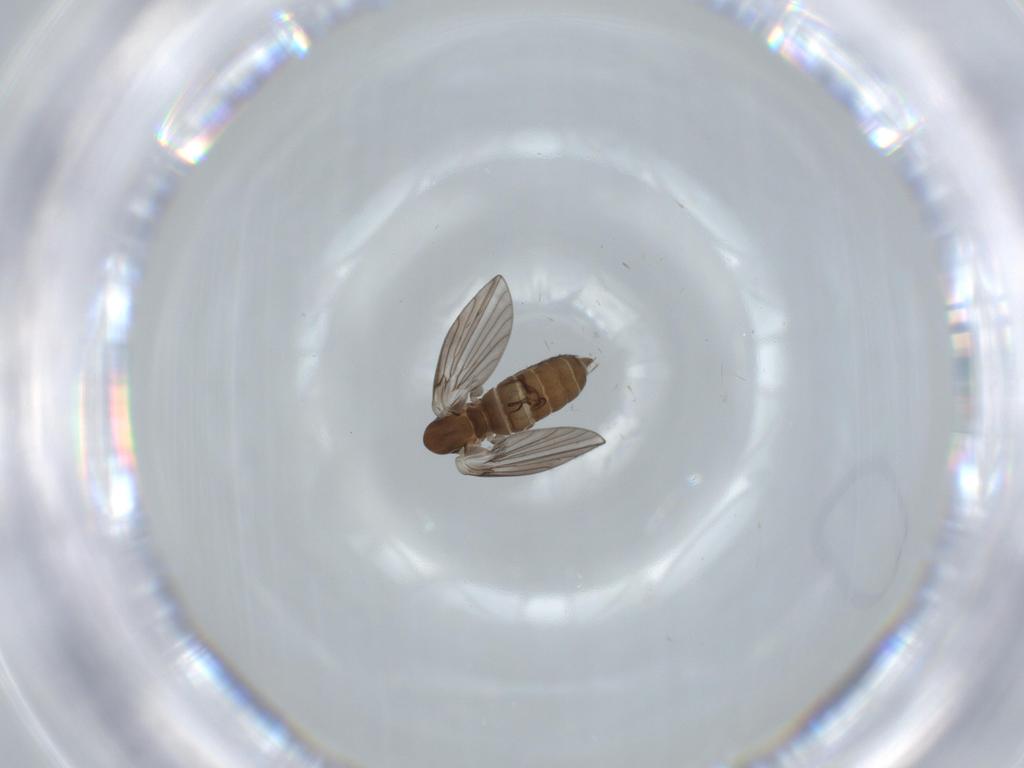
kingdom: Animalia
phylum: Arthropoda
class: Insecta
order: Diptera
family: Psychodidae
